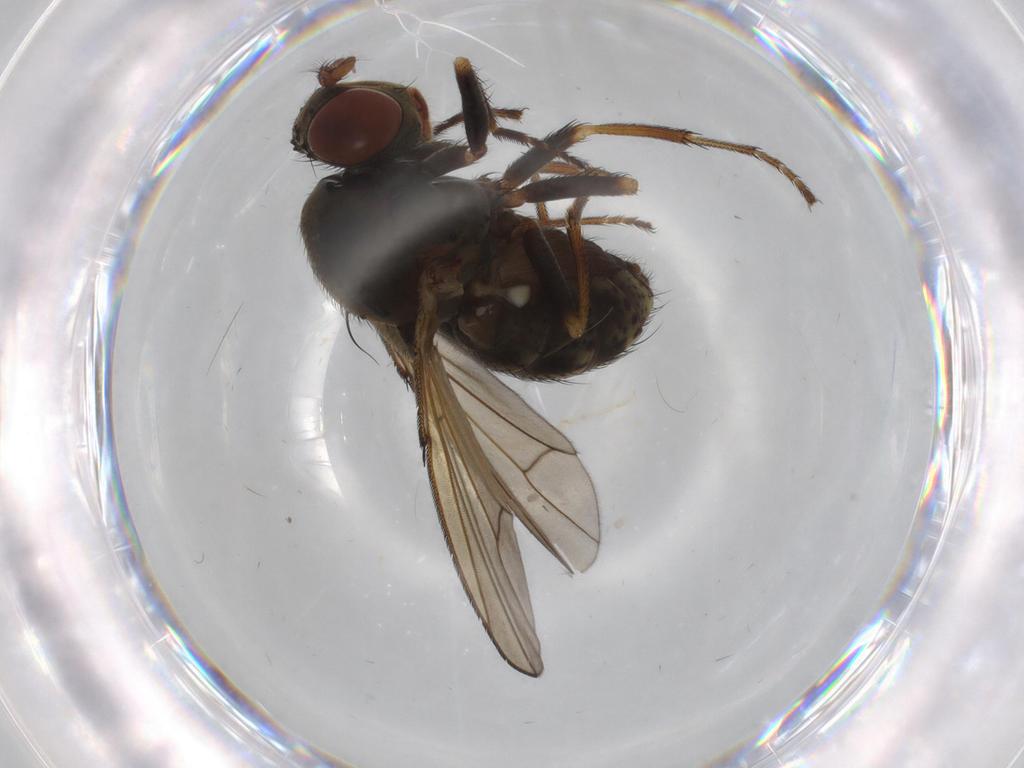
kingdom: Animalia
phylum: Arthropoda
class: Insecta
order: Diptera
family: Ephydridae
